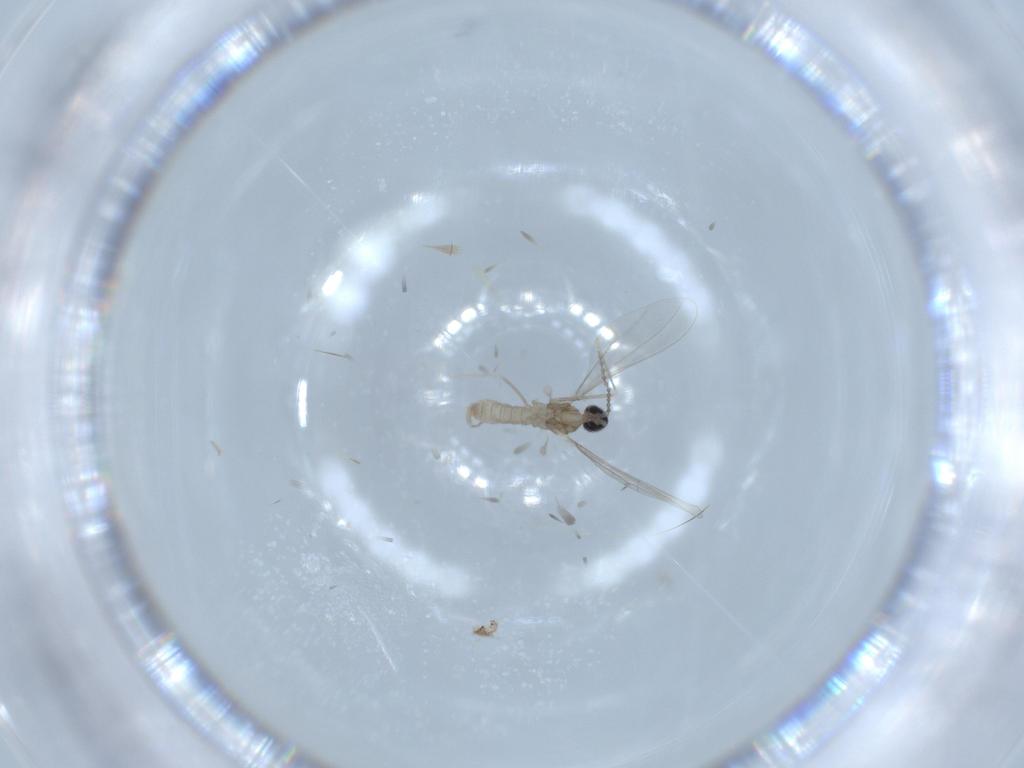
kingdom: Animalia
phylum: Arthropoda
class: Insecta
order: Diptera
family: Cecidomyiidae
